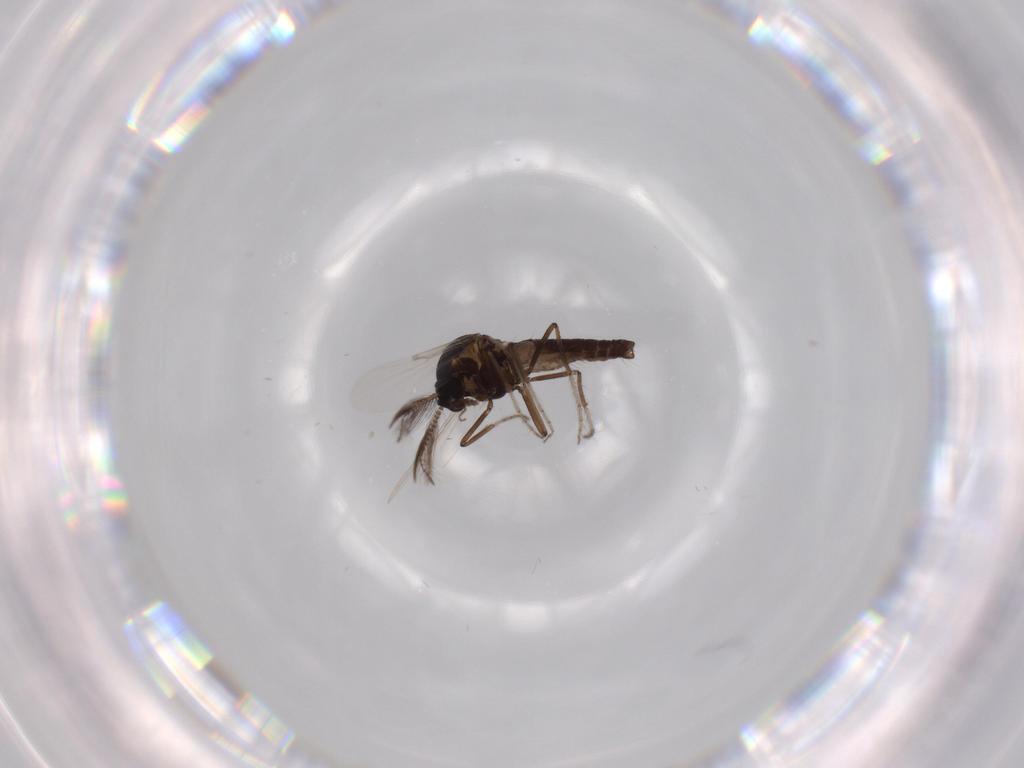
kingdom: Animalia
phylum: Arthropoda
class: Insecta
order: Diptera
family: Ceratopogonidae
